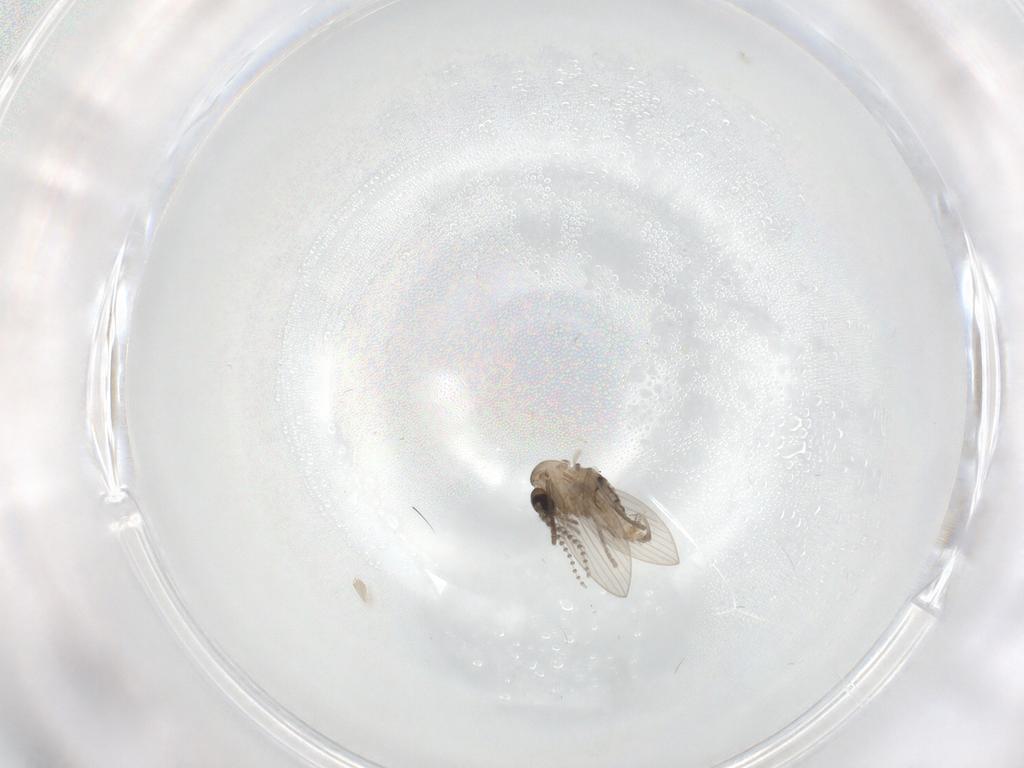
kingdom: Animalia
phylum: Arthropoda
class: Insecta
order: Diptera
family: Psychodidae
